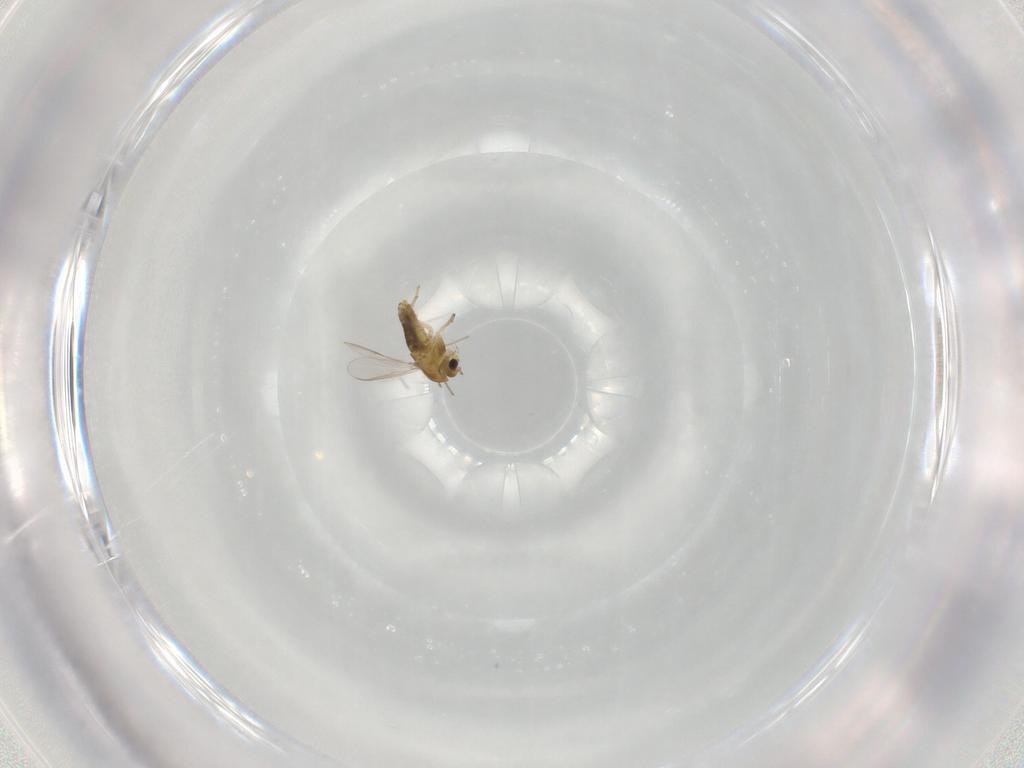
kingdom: Animalia
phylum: Arthropoda
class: Insecta
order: Diptera
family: Chironomidae
